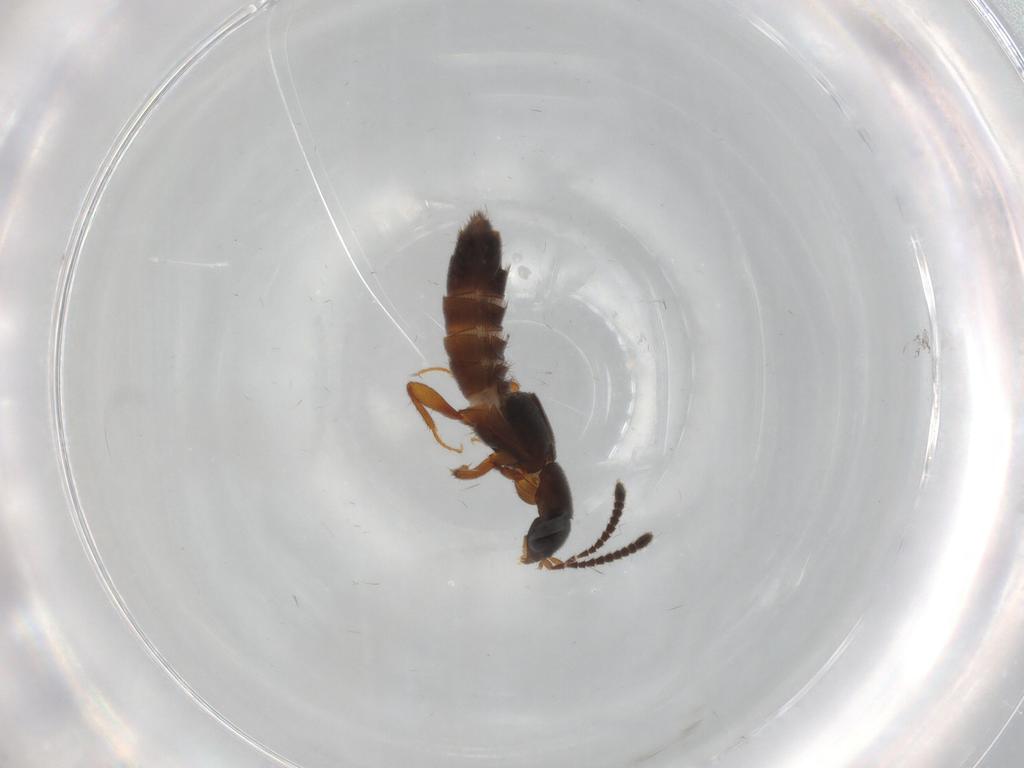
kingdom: Animalia
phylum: Arthropoda
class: Insecta
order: Coleoptera
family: Staphylinidae
